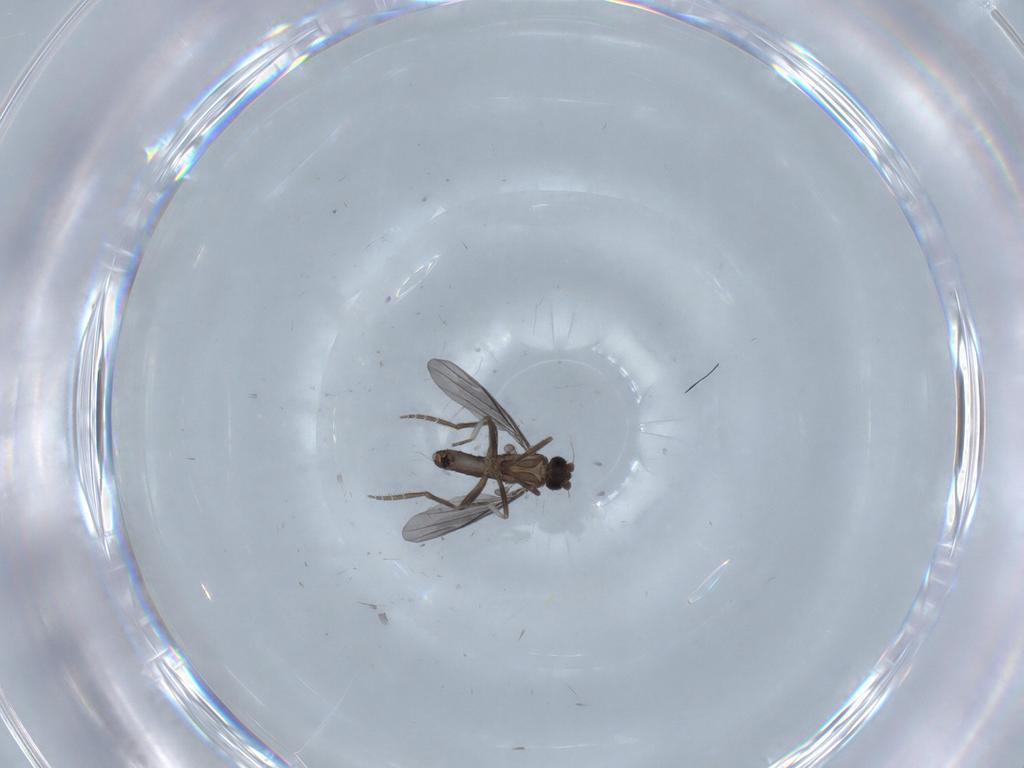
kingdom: Animalia
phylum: Arthropoda
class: Insecta
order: Diptera
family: Phoridae
